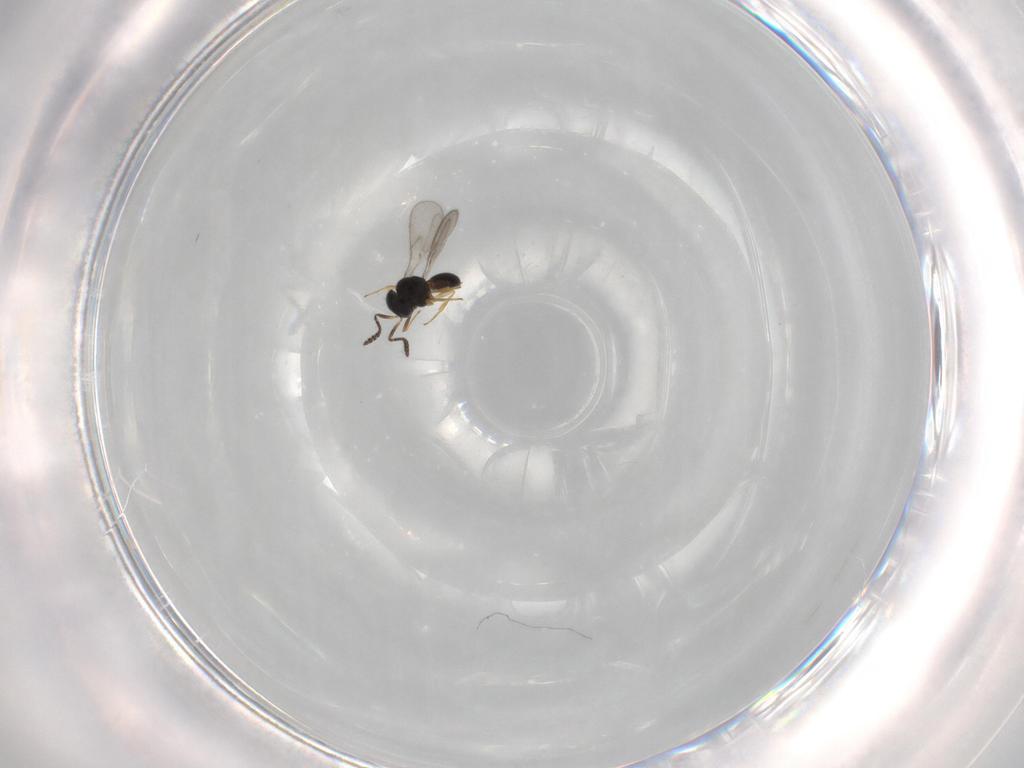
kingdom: Animalia
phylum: Arthropoda
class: Insecta
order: Hymenoptera
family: Scelionidae
